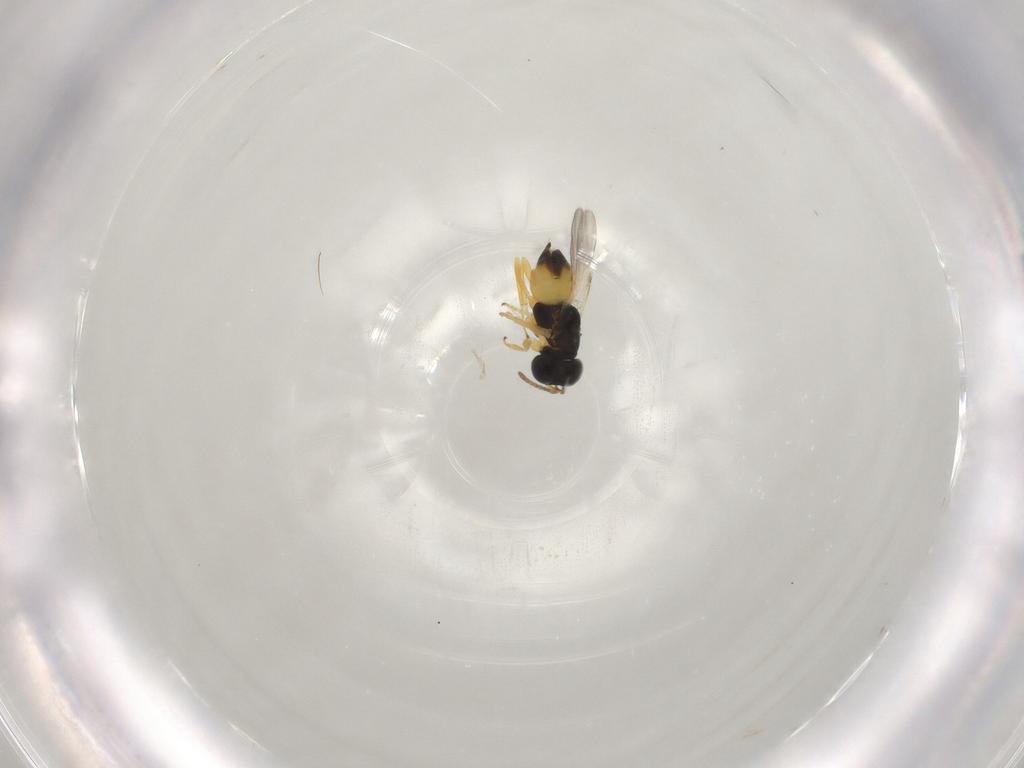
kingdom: Animalia
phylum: Arthropoda
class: Insecta
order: Hymenoptera
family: Encyrtidae
